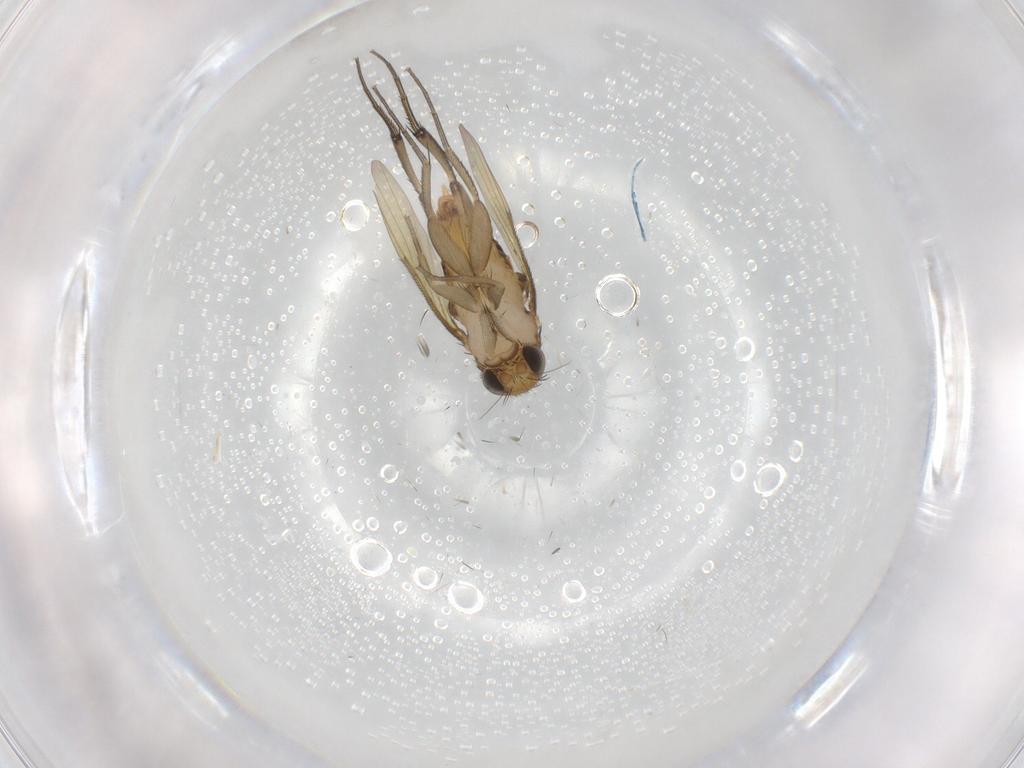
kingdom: Animalia
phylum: Arthropoda
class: Insecta
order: Diptera
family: Phoridae
